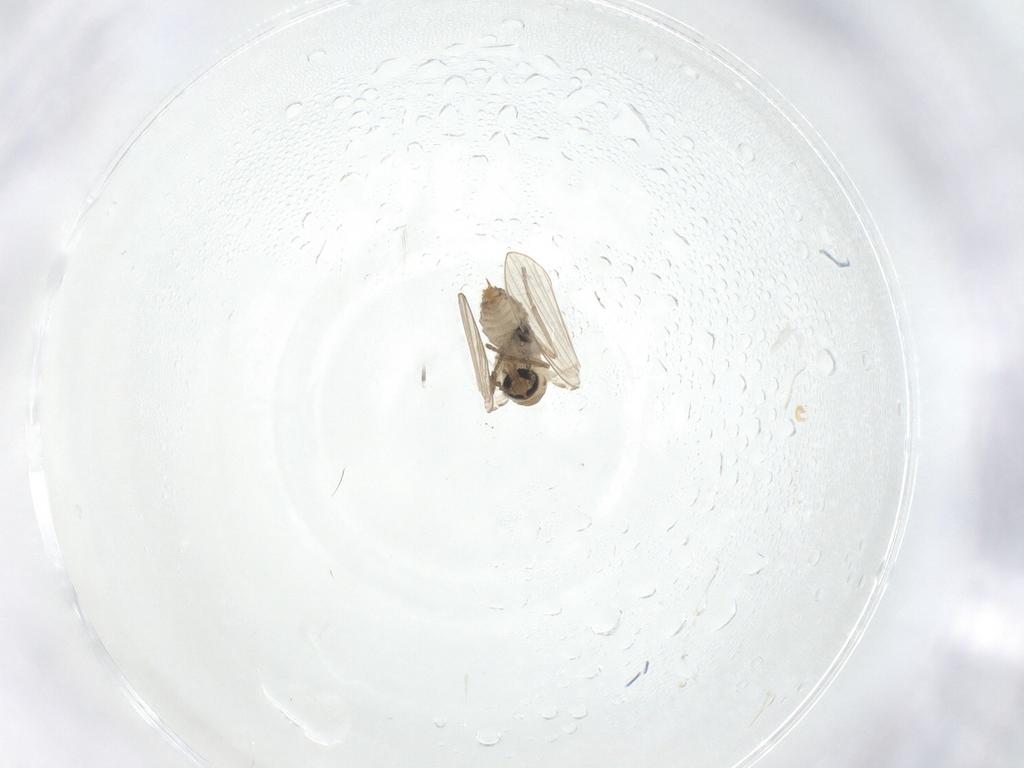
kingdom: Animalia
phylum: Arthropoda
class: Insecta
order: Diptera
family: Psychodidae
